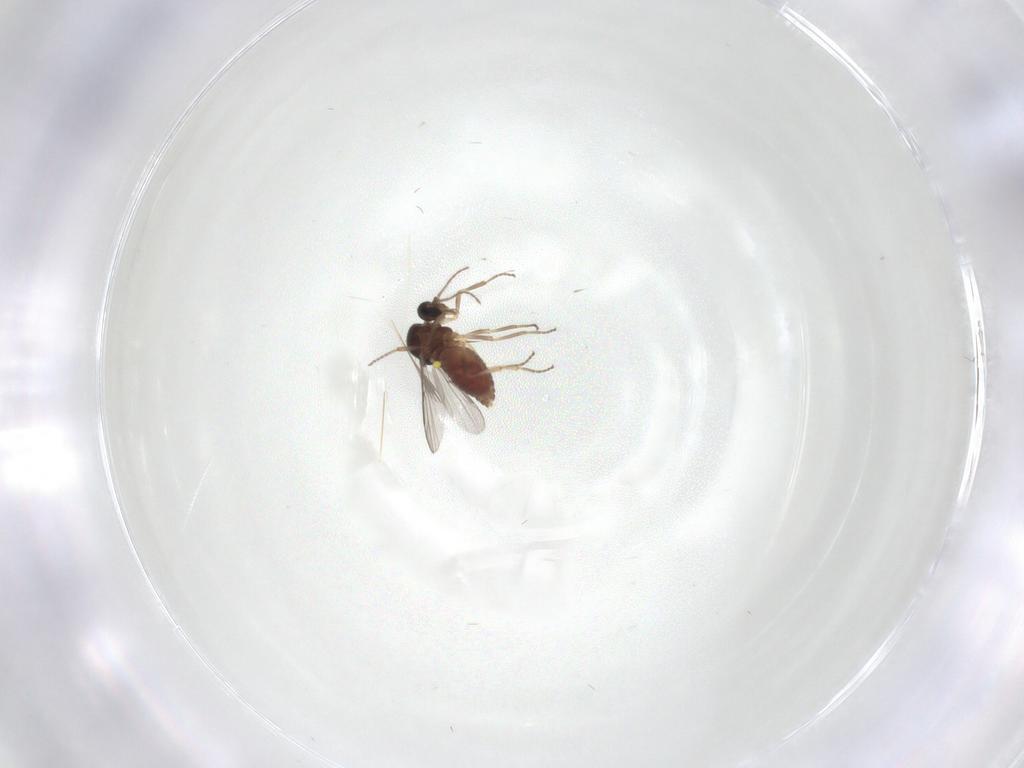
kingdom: Animalia
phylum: Arthropoda
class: Insecta
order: Diptera
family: Ceratopogonidae
